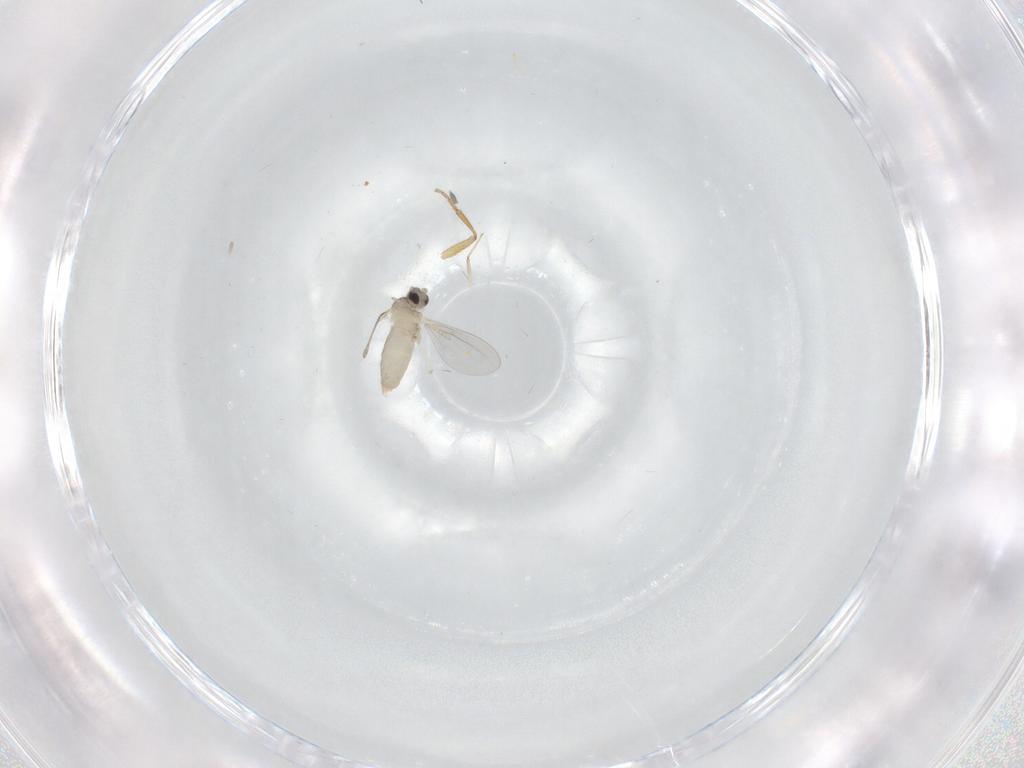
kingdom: Animalia
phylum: Arthropoda
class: Insecta
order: Diptera
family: Cecidomyiidae
